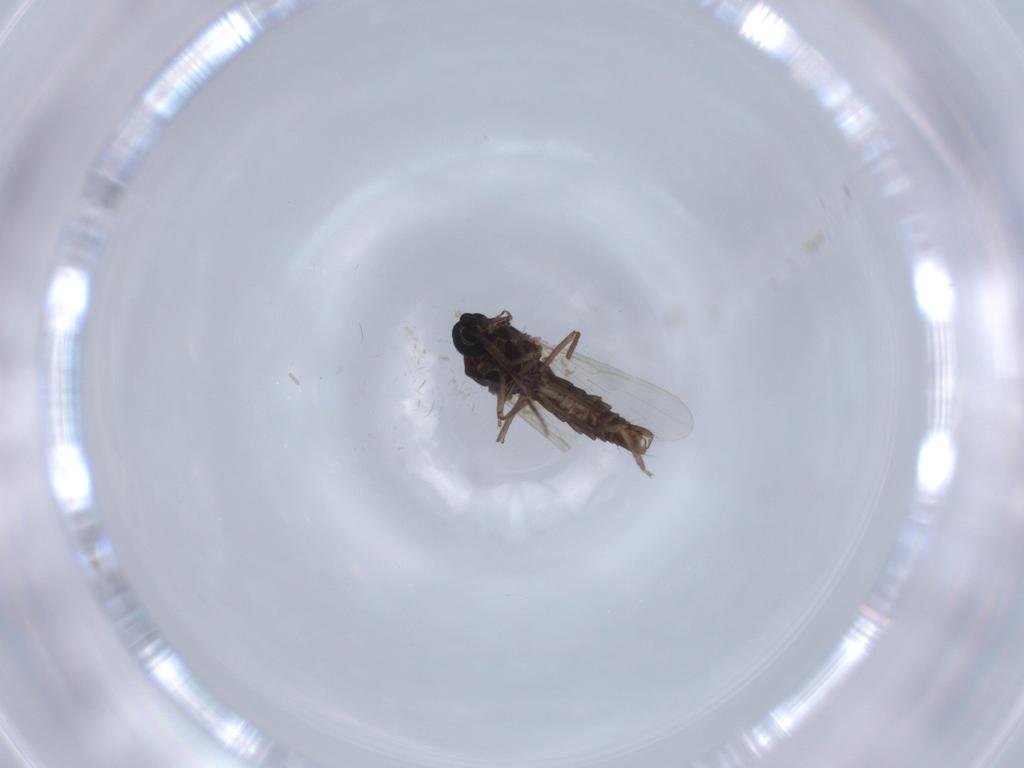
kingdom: Animalia
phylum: Arthropoda
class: Insecta
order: Diptera
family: Ceratopogonidae
